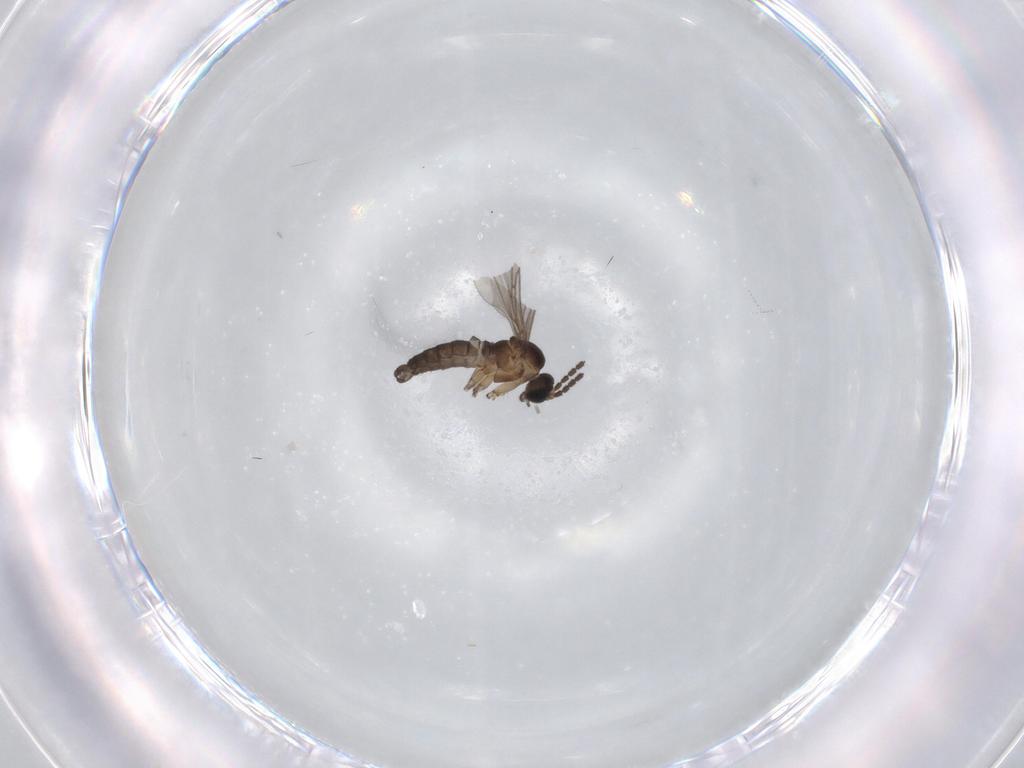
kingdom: Animalia
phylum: Arthropoda
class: Insecta
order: Diptera
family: Sciaridae
